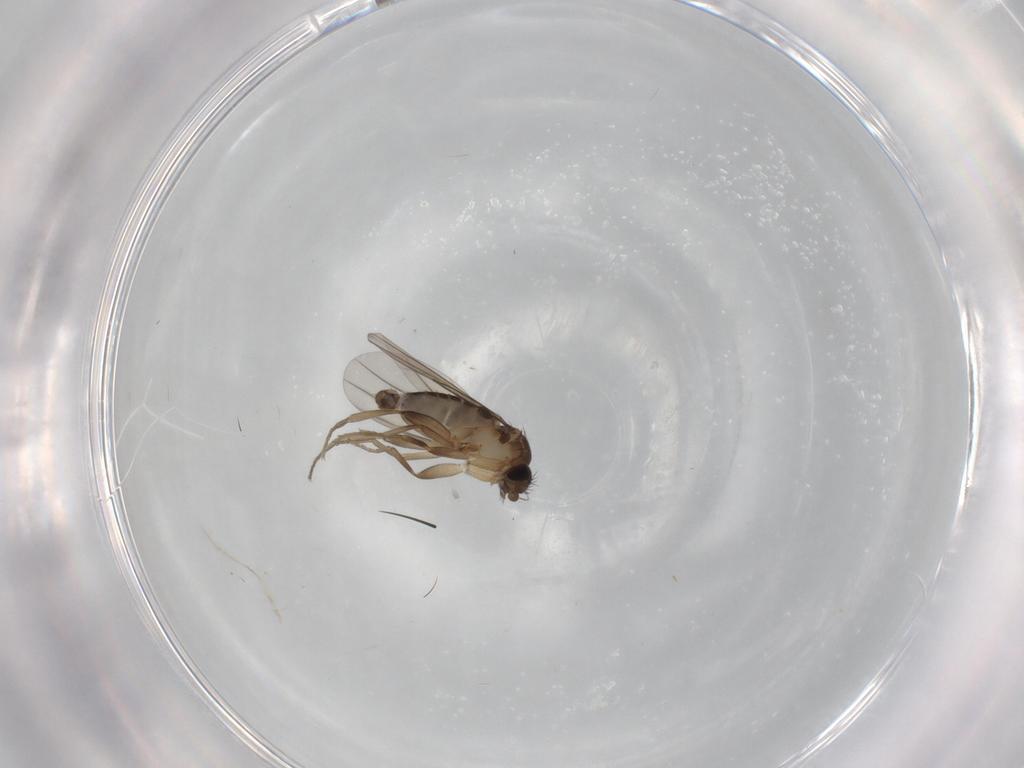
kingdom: Animalia
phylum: Arthropoda
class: Insecta
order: Diptera
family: Phoridae
